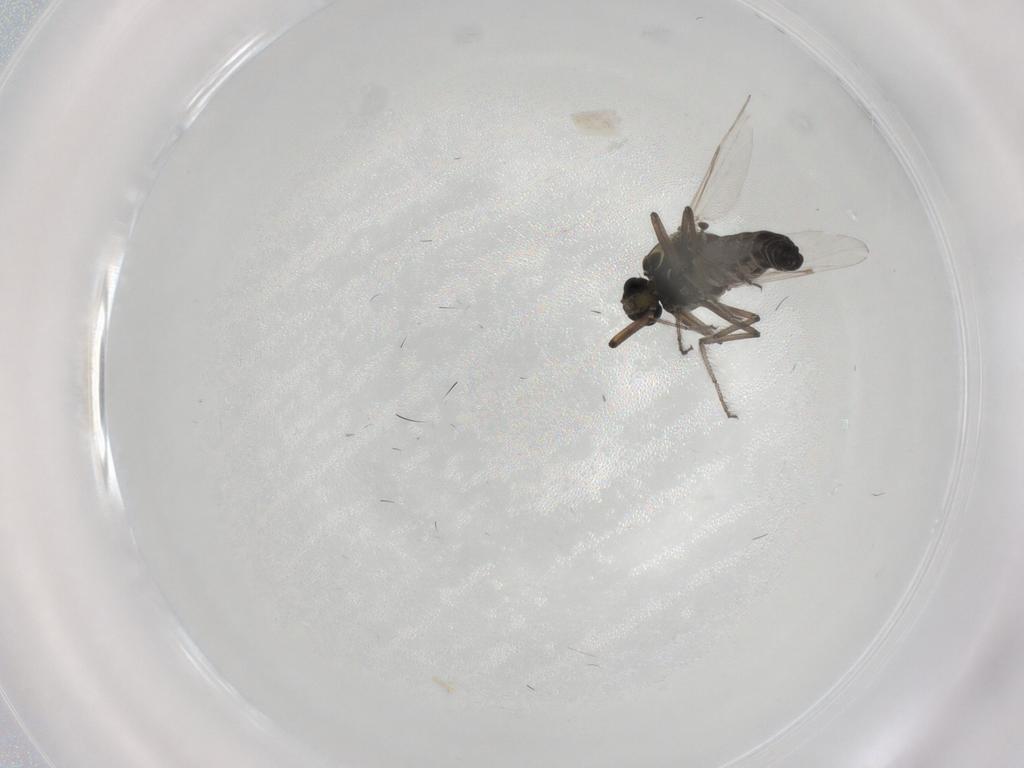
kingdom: Animalia
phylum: Arthropoda
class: Insecta
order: Diptera
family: Ceratopogonidae
